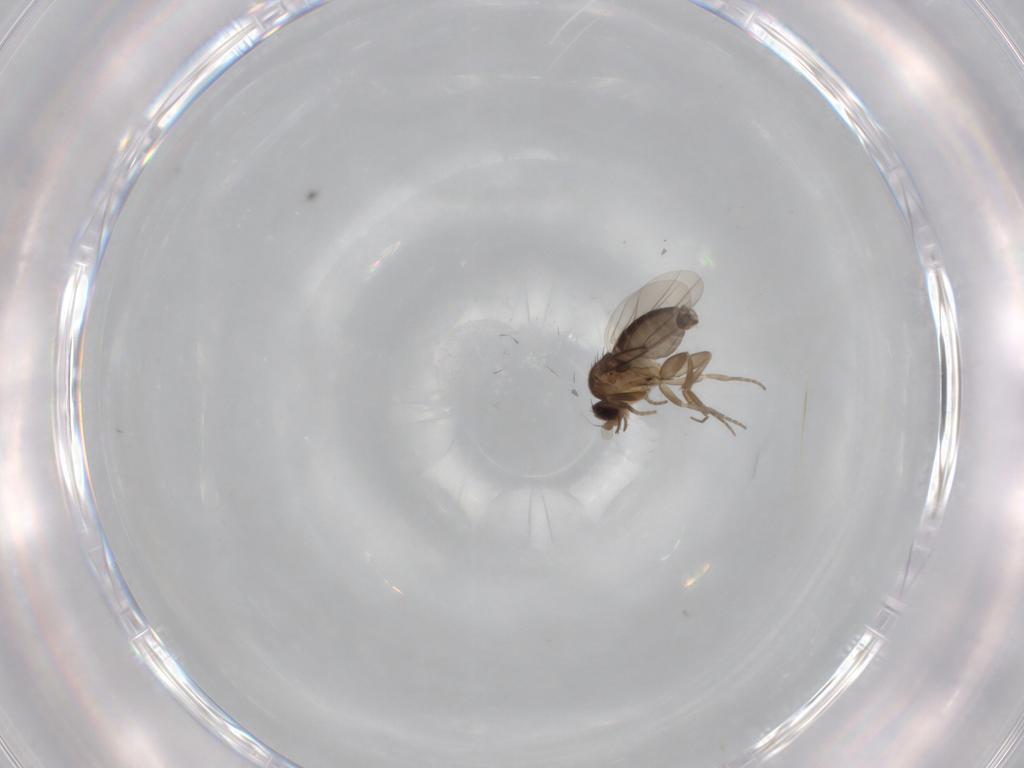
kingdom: Animalia
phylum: Arthropoda
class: Insecta
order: Diptera
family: Phoridae
